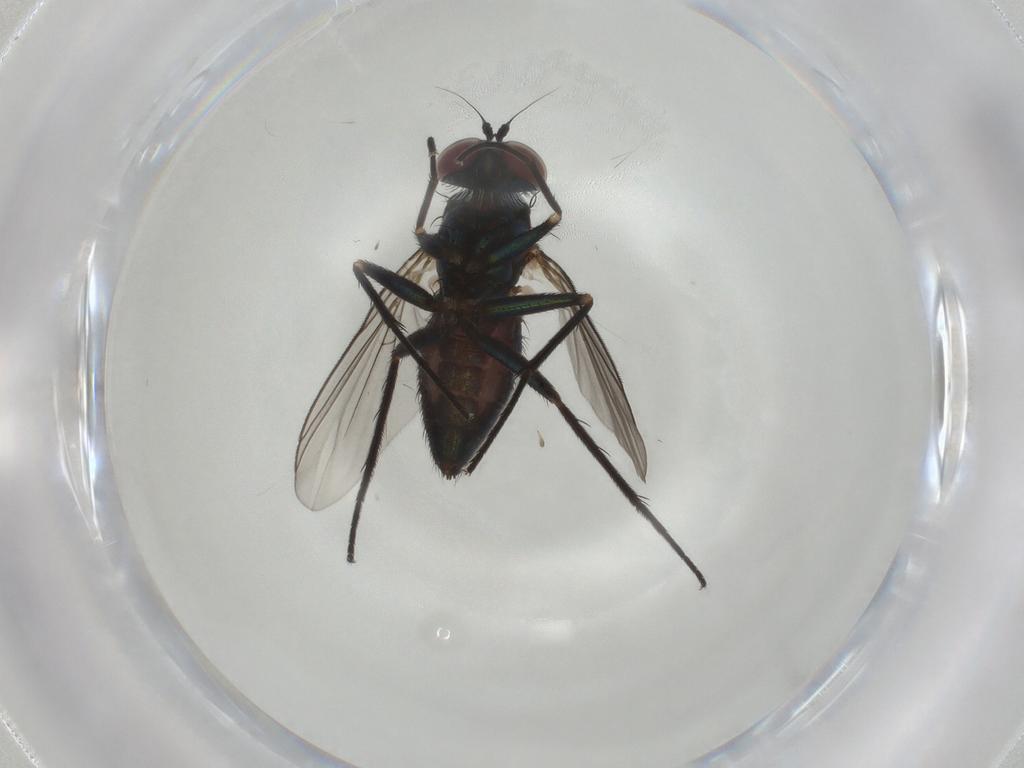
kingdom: Animalia
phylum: Arthropoda
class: Insecta
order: Diptera
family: Dolichopodidae
